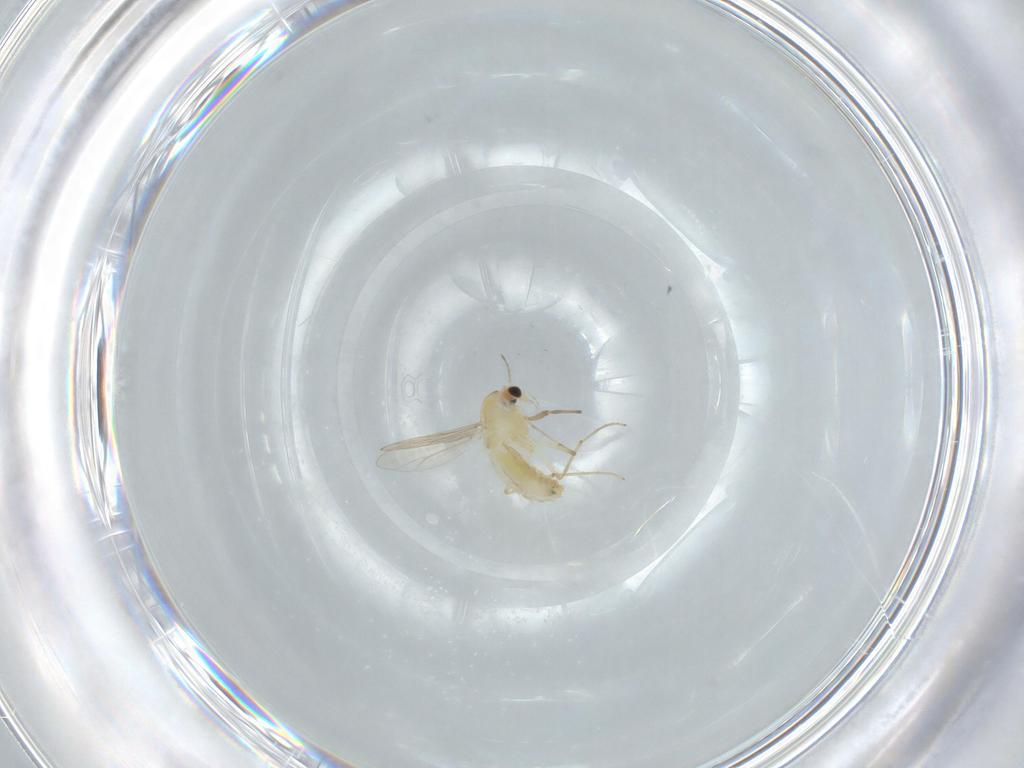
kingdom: Animalia
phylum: Arthropoda
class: Insecta
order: Diptera
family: Chironomidae
